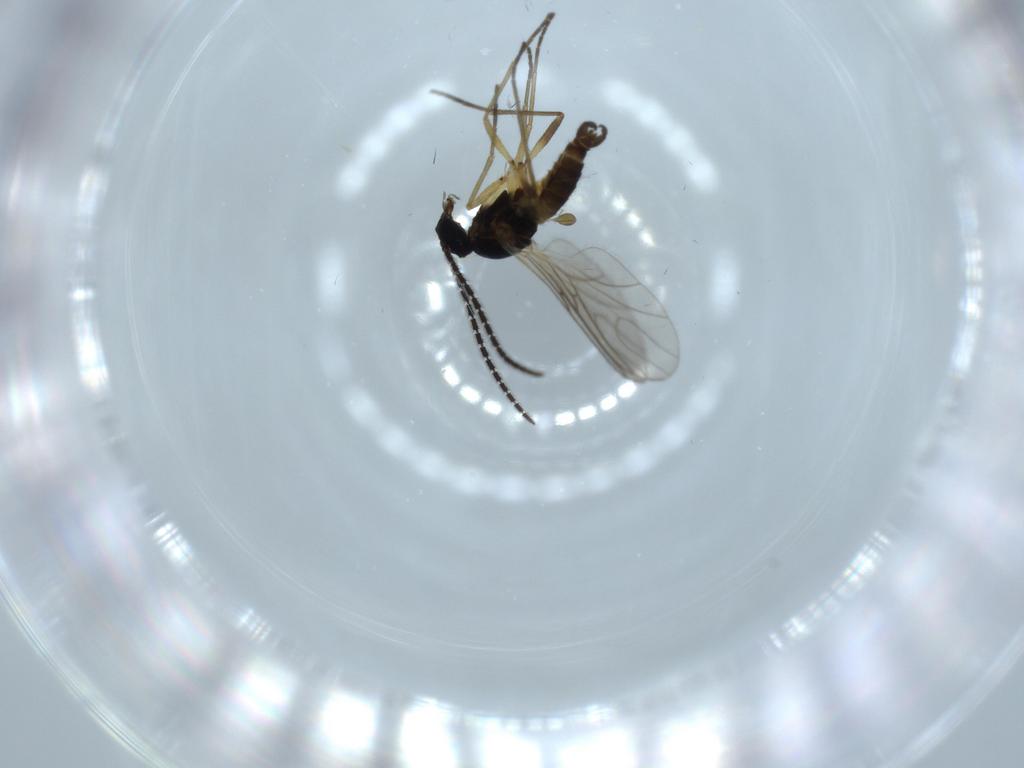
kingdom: Animalia
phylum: Arthropoda
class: Insecta
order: Diptera
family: Sciaridae
